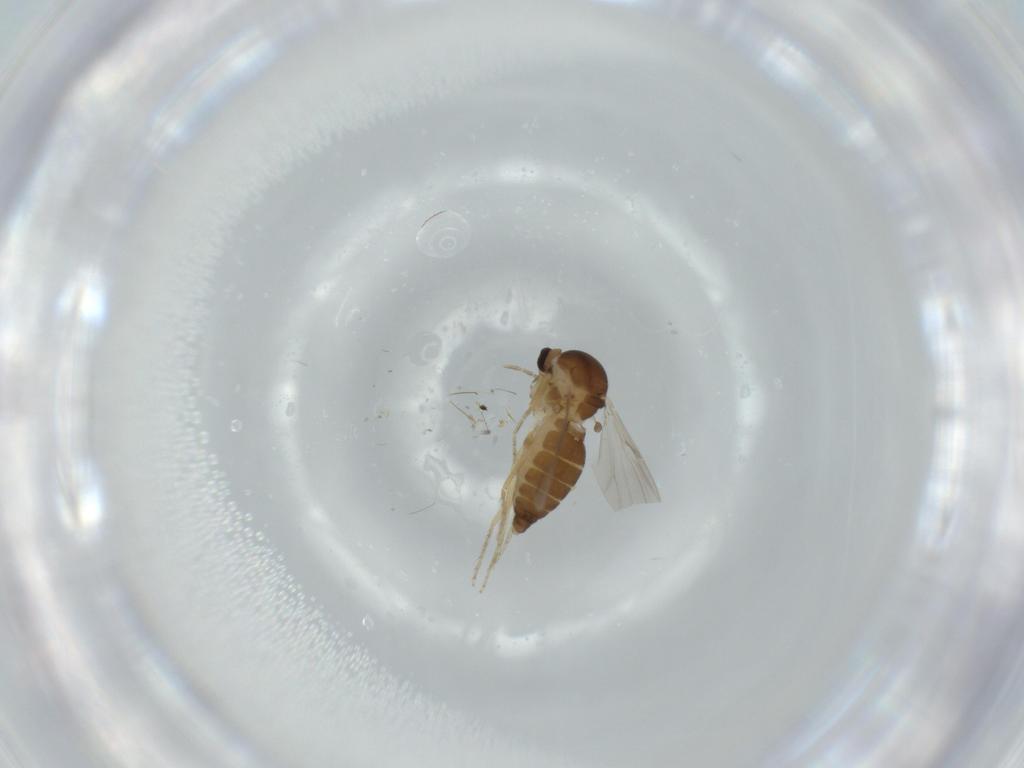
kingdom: Animalia
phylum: Arthropoda
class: Insecta
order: Diptera
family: Ceratopogonidae
